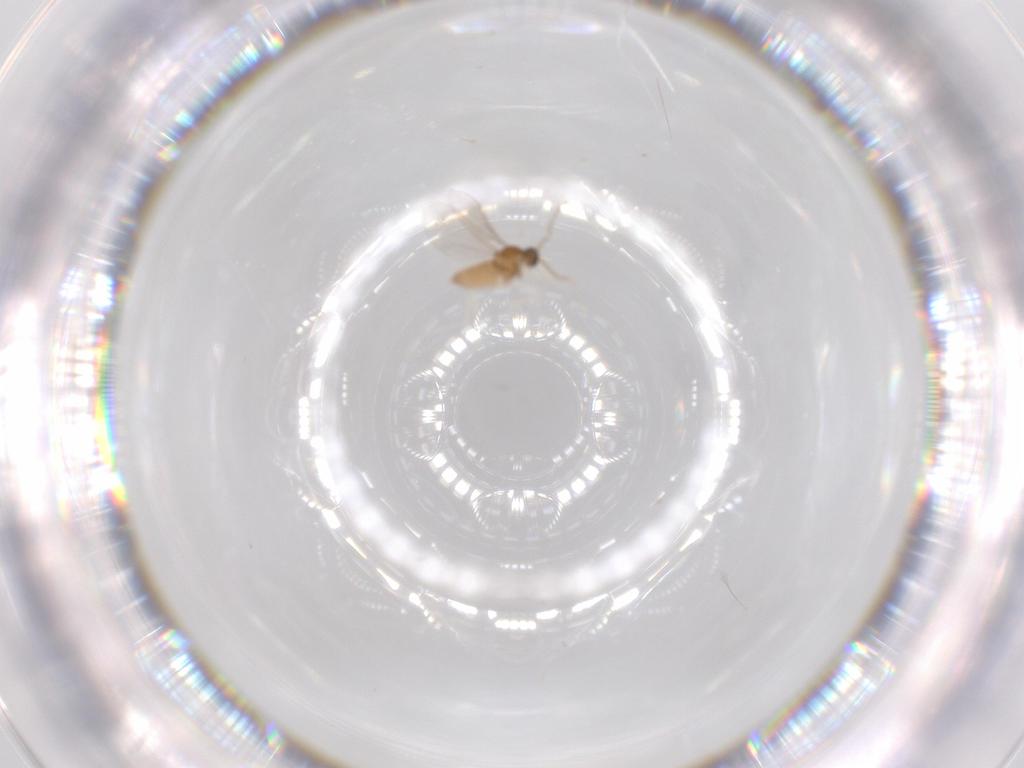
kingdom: Animalia
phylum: Arthropoda
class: Insecta
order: Diptera
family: Cecidomyiidae
